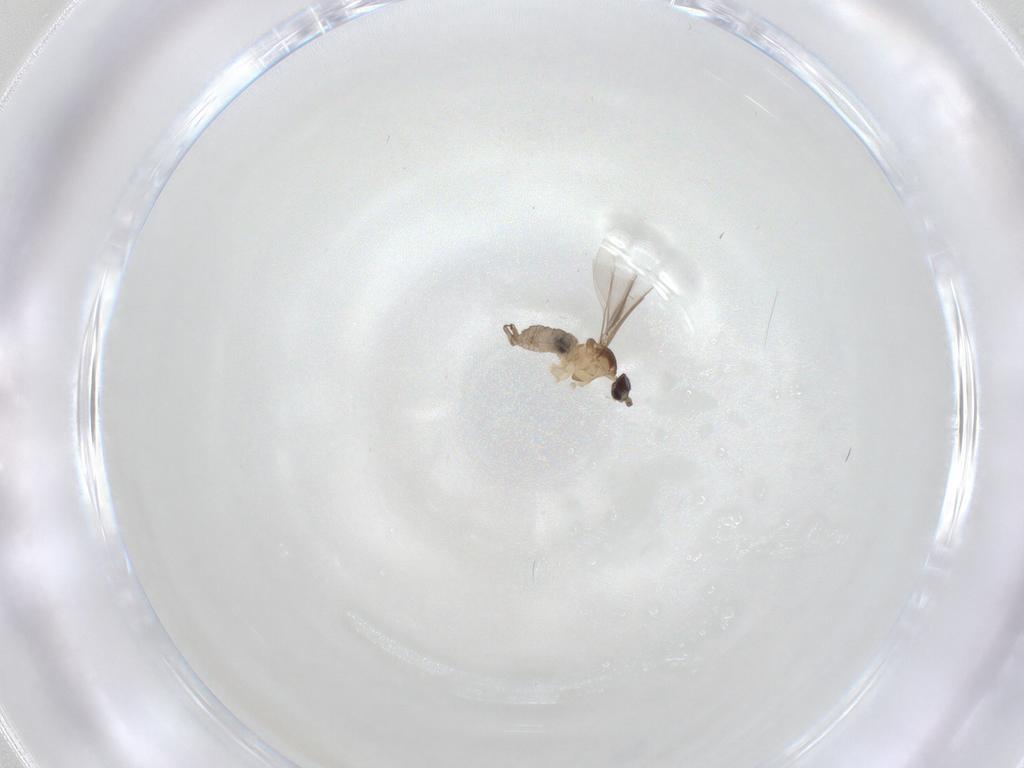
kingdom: Animalia
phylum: Arthropoda
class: Insecta
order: Diptera
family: Cecidomyiidae
